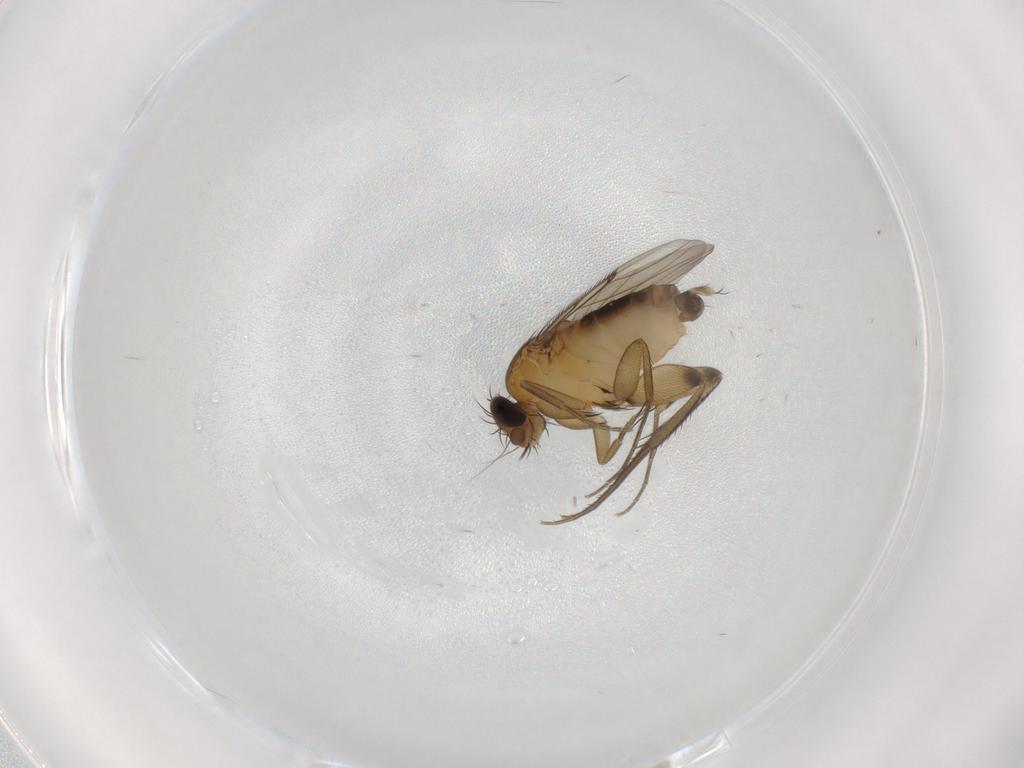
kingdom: Animalia
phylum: Arthropoda
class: Insecta
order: Diptera
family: Phoridae
